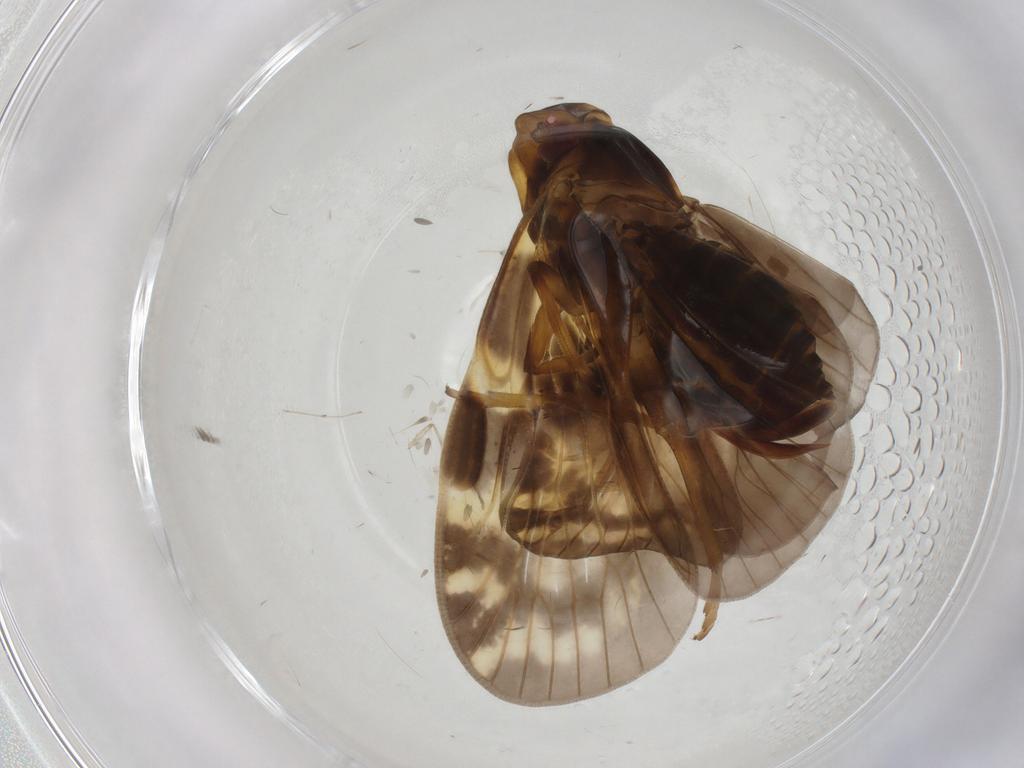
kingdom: Animalia
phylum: Arthropoda
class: Insecta
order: Hemiptera
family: Cixiidae
